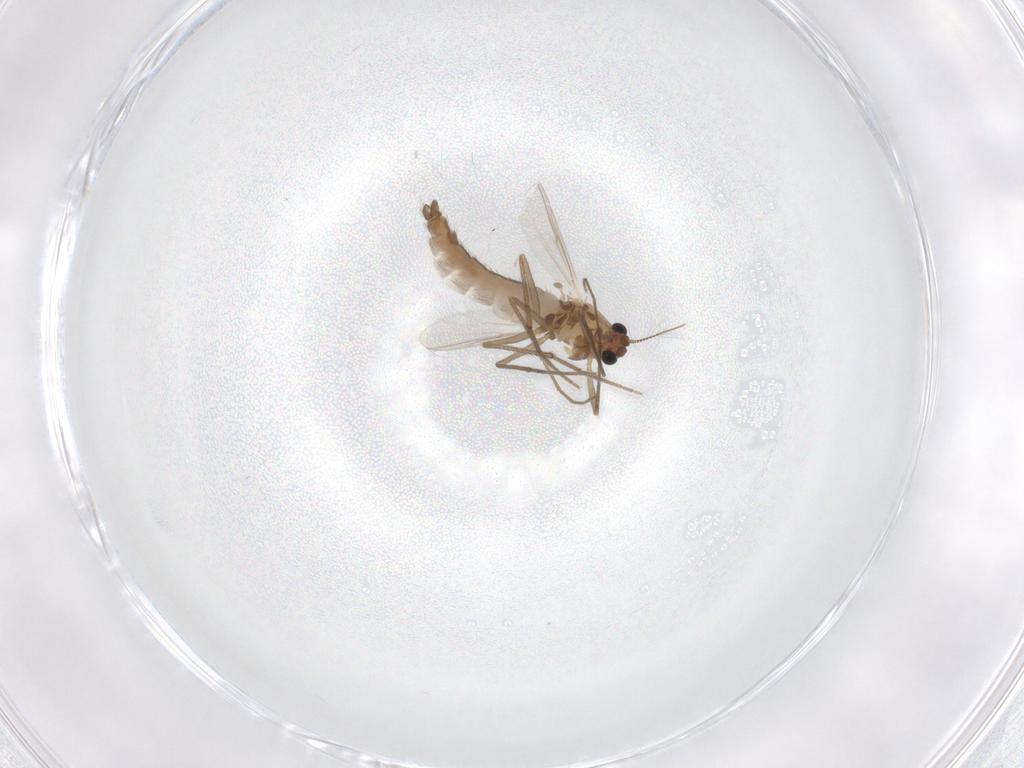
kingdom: Animalia
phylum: Arthropoda
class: Insecta
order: Diptera
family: Chironomidae
